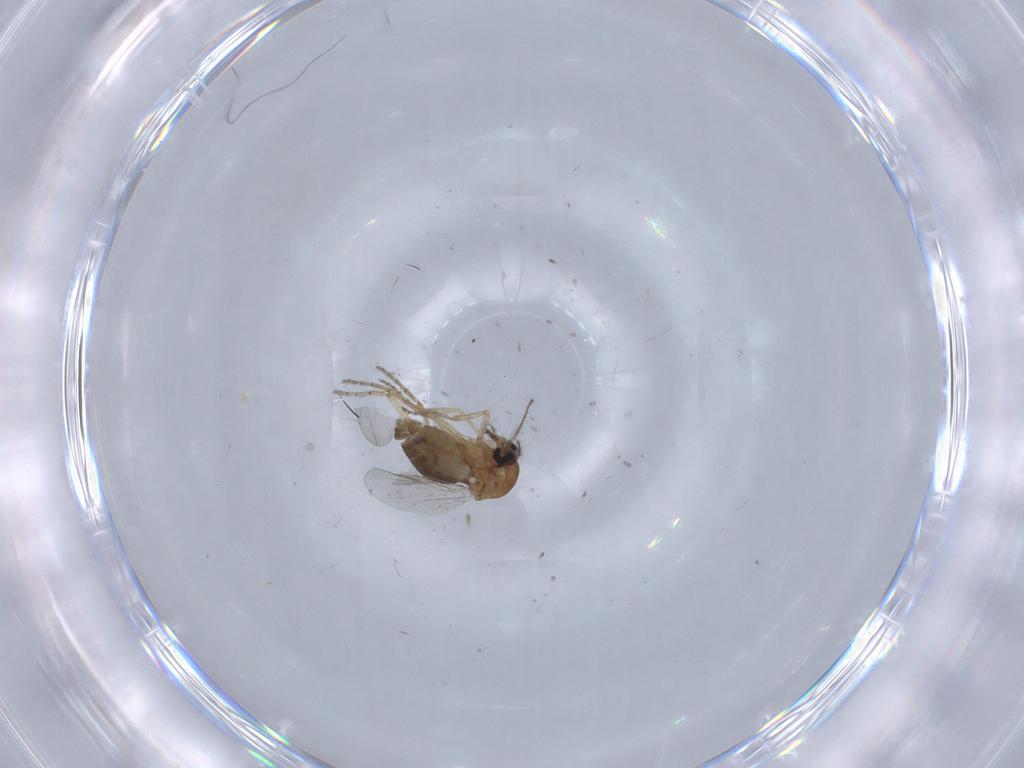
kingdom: Animalia
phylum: Arthropoda
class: Insecta
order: Diptera
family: Ceratopogonidae
